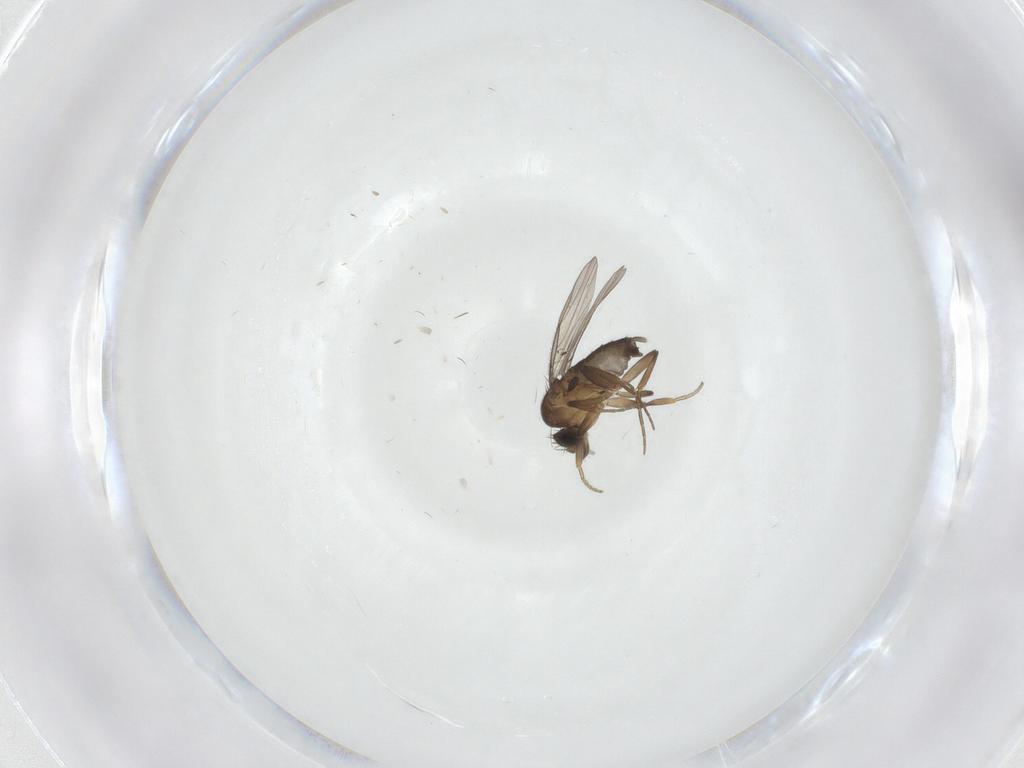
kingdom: Animalia
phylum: Arthropoda
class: Insecta
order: Diptera
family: Phoridae
